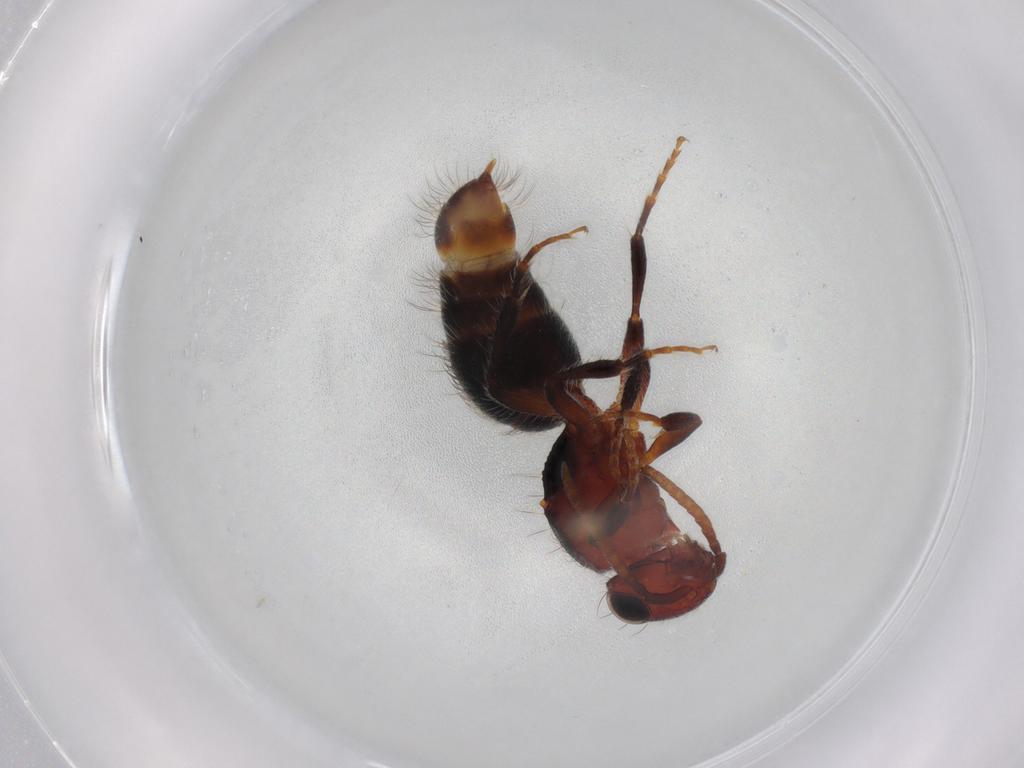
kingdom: Animalia
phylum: Arthropoda
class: Insecta
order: Hymenoptera
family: Mutillidae
